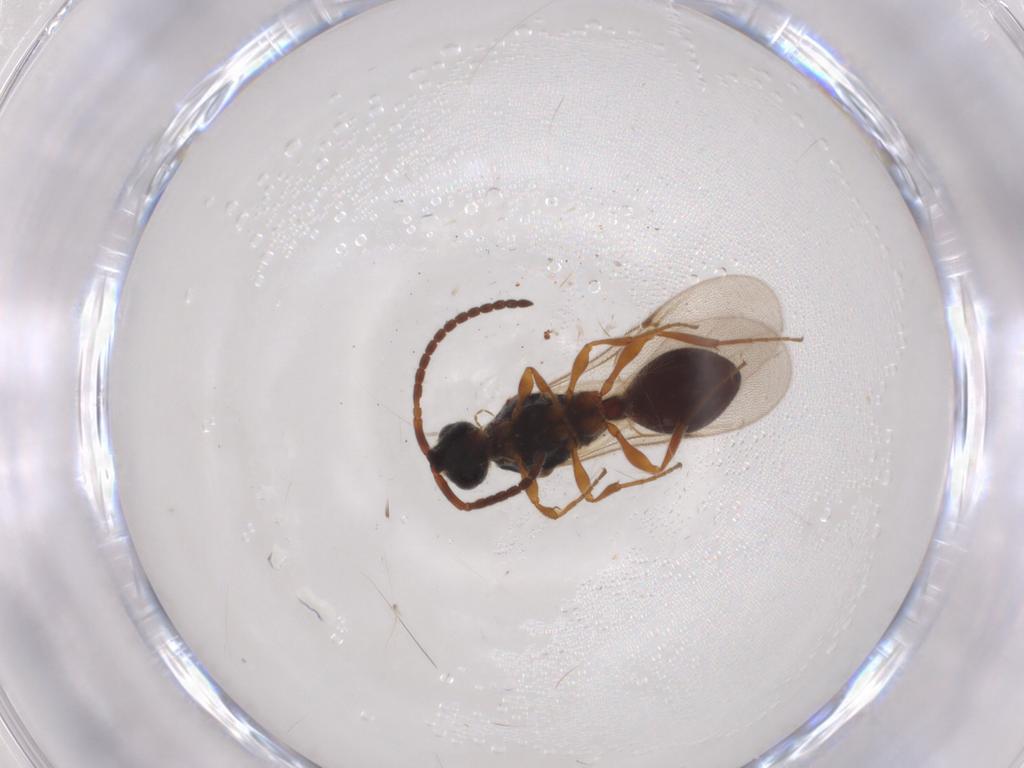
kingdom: Animalia
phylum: Arthropoda
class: Insecta
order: Hymenoptera
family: Diapriidae
